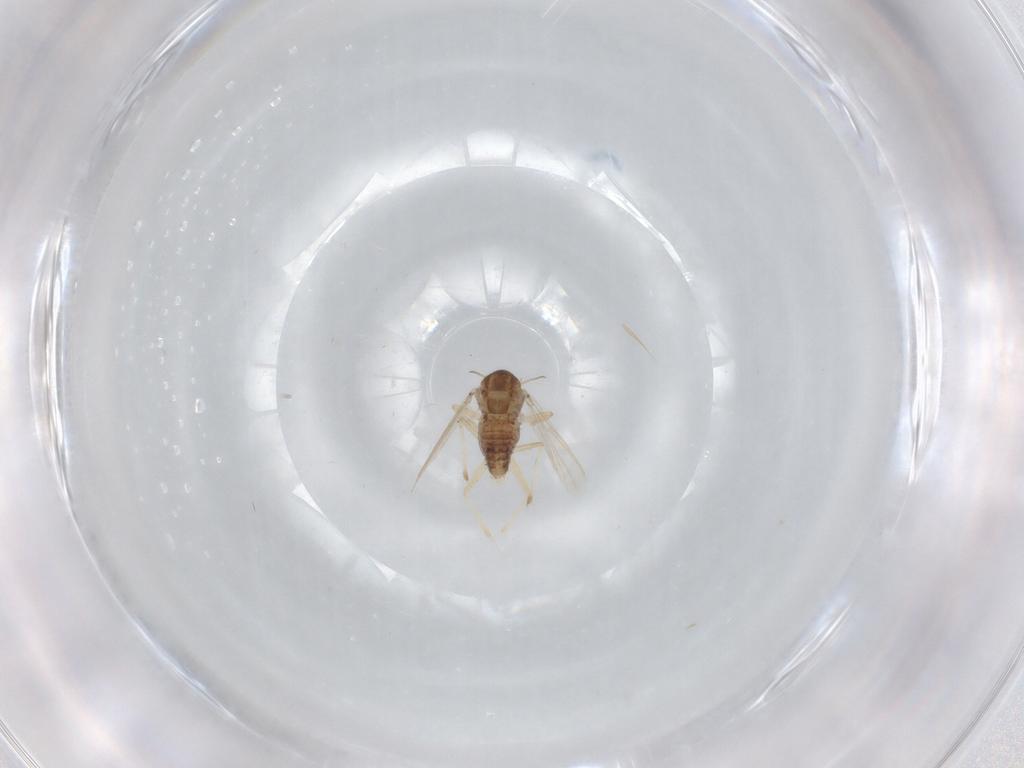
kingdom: Animalia
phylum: Arthropoda
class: Insecta
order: Diptera
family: Chironomidae
